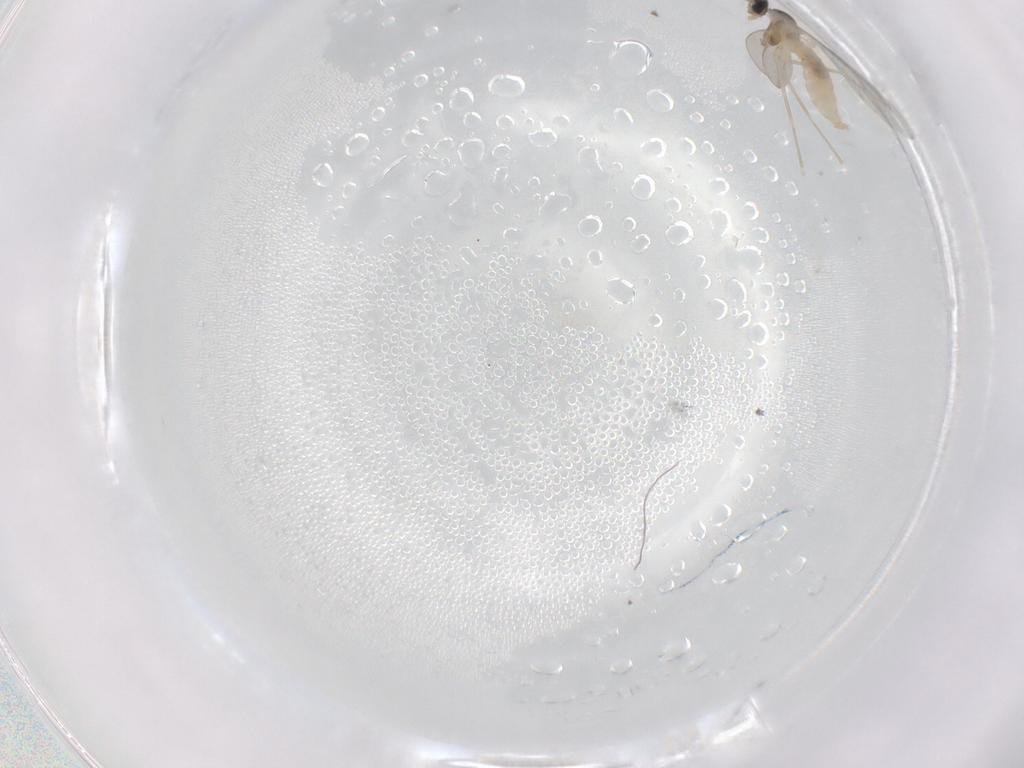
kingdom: Animalia
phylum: Arthropoda
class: Insecta
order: Diptera
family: Cecidomyiidae
